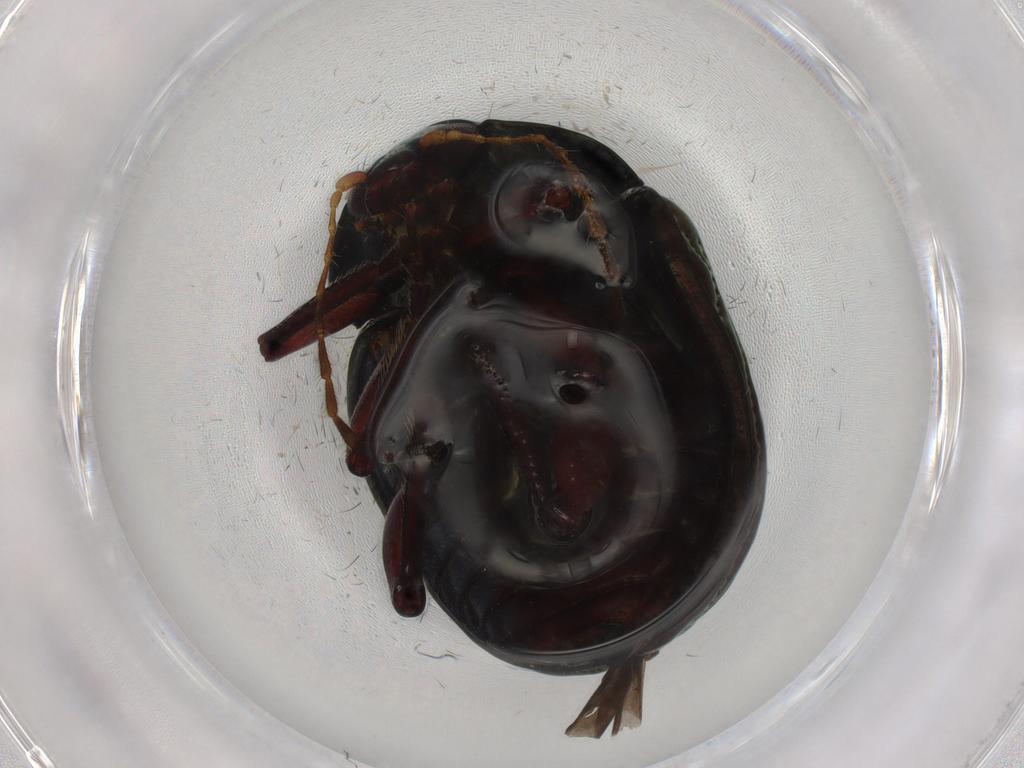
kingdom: Animalia
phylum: Arthropoda
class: Insecta
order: Coleoptera
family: Chrysomelidae
